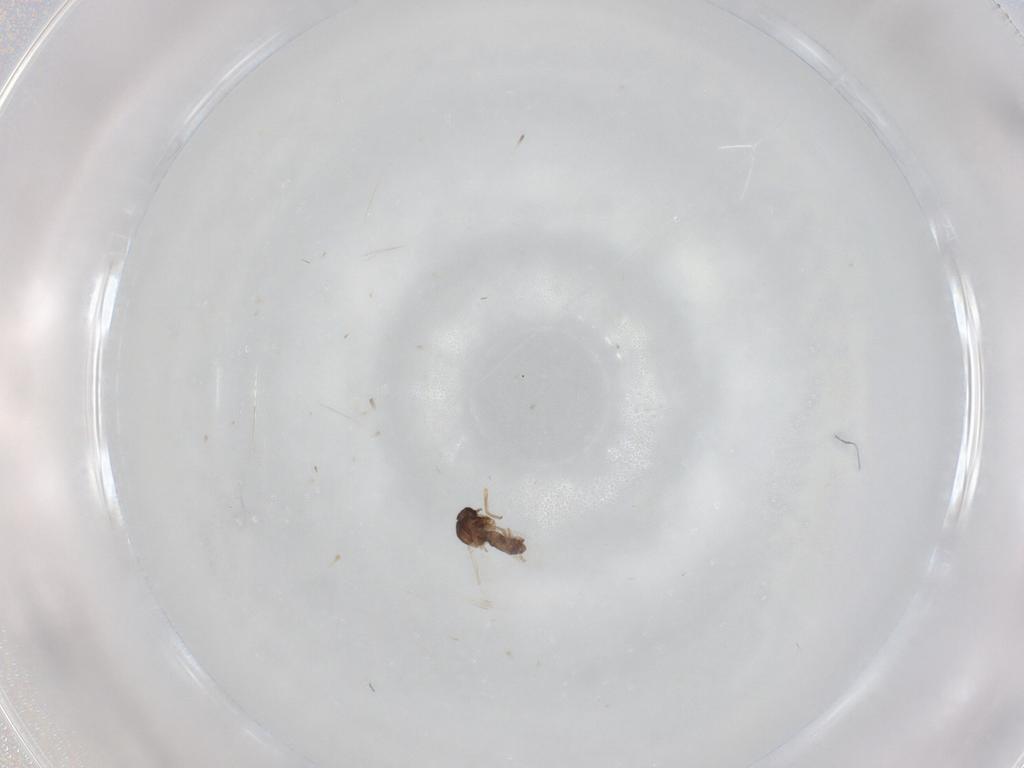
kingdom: Animalia
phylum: Arthropoda
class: Insecta
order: Diptera
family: Ceratopogonidae
